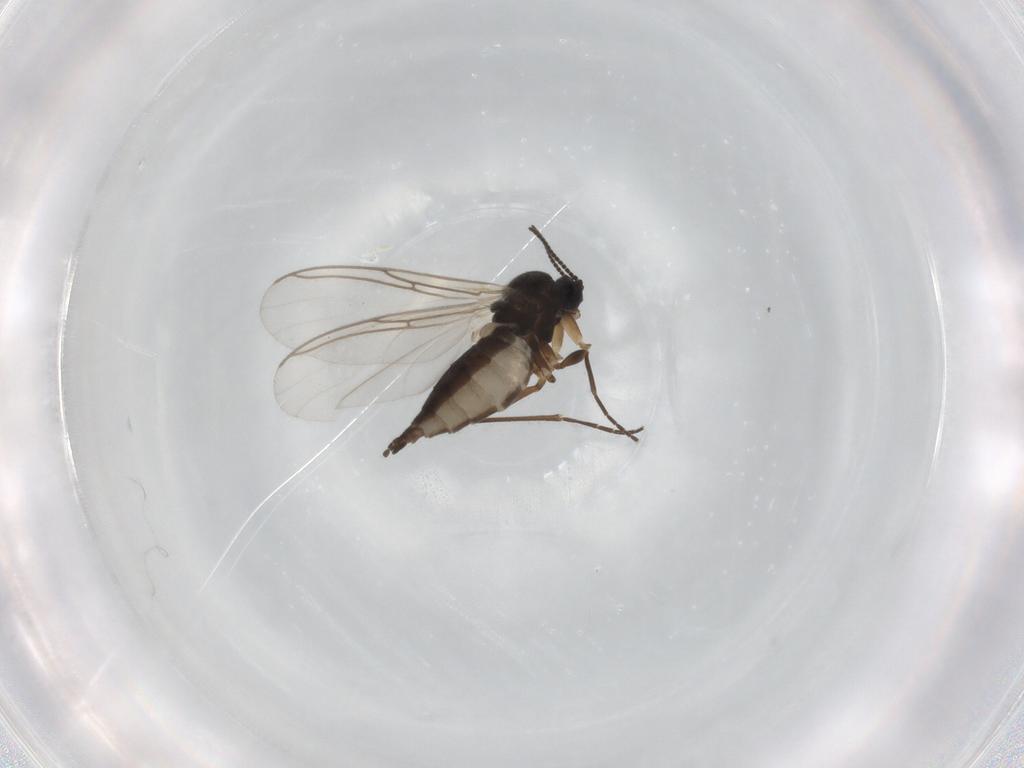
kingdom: Animalia
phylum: Arthropoda
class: Insecta
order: Diptera
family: Sciaridae
